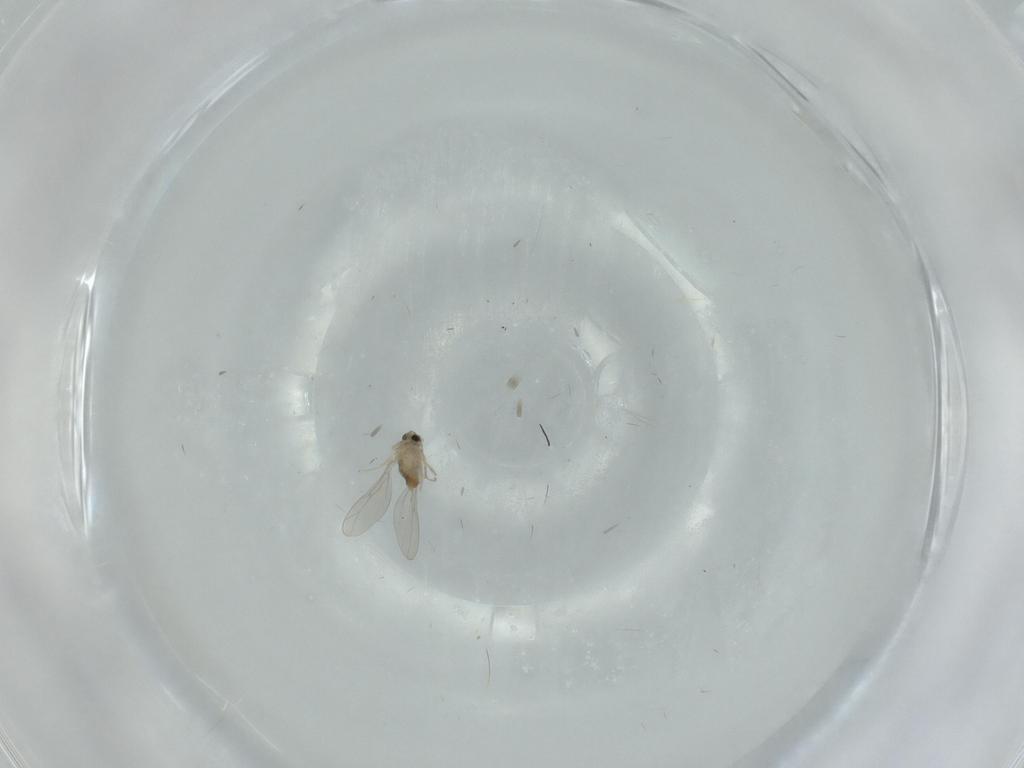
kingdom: Animalia
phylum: Arthropoda
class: Insecta
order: Diptera
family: Cecidomyiidae
